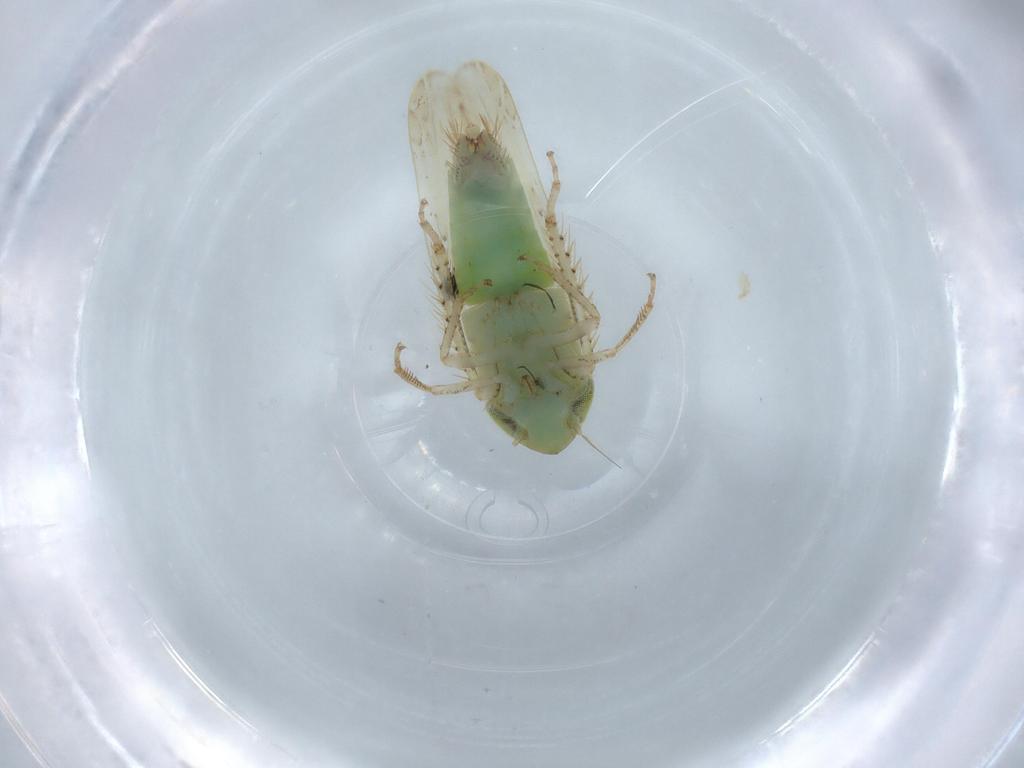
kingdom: Animalia
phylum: Arthropoda
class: Insecta
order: Hemiptera
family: Cicadellidae
